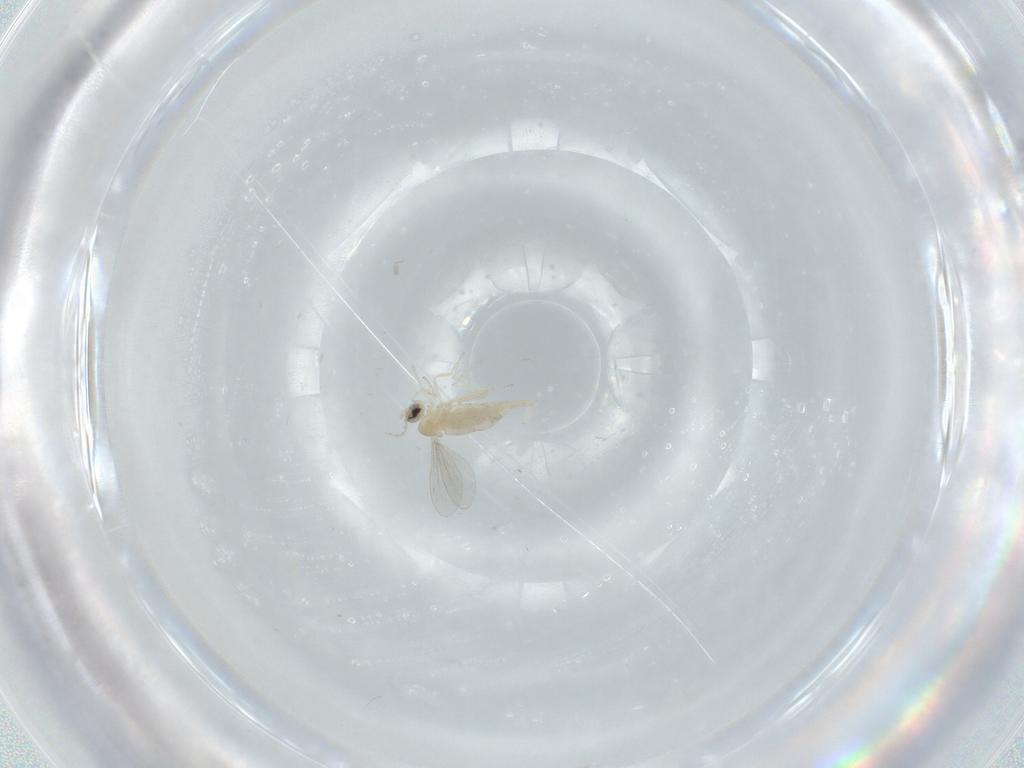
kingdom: Animalia
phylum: Arthropoda
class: Insecta
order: Diptera
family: Cecidomyiidae
